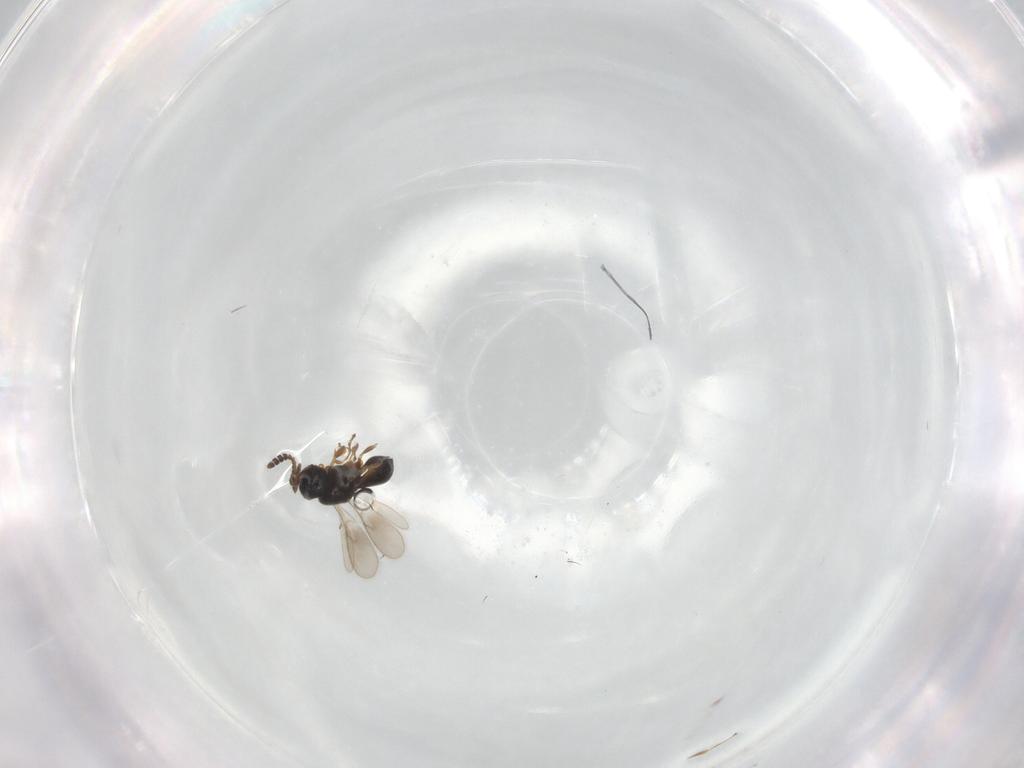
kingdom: Animalia
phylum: Arthropoda
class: Insecta
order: Hymenoptera
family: Scelionidae
